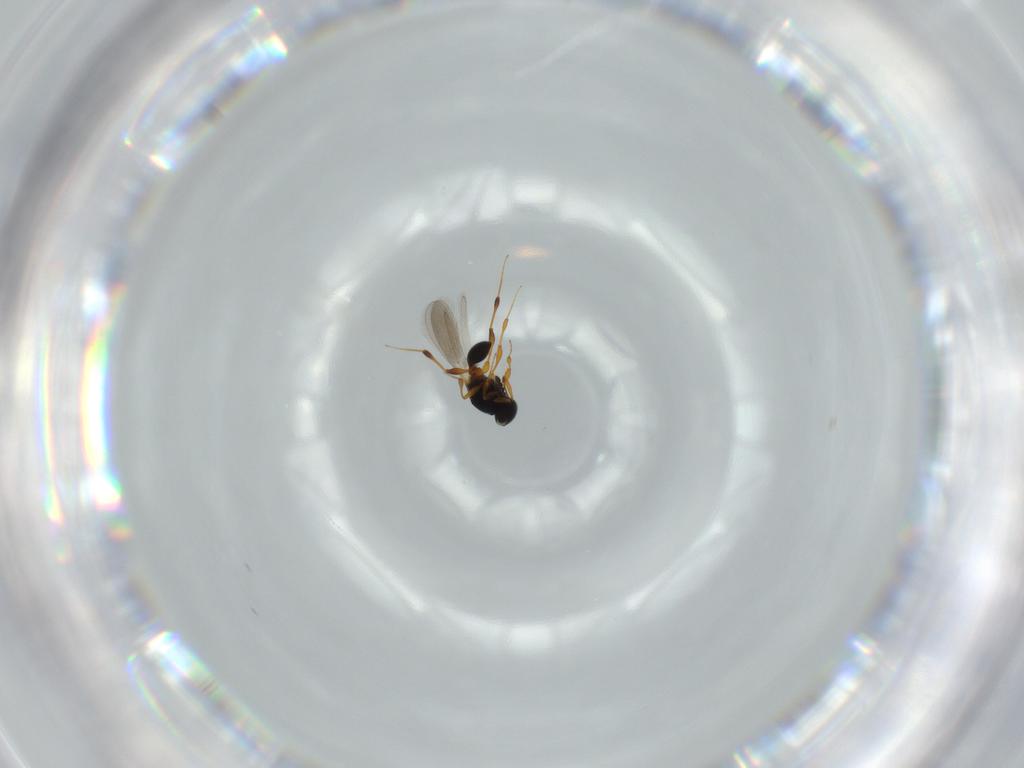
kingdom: Animalia
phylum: Arthropoda
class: Insecta
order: Hymenoptera
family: Platygastridae
